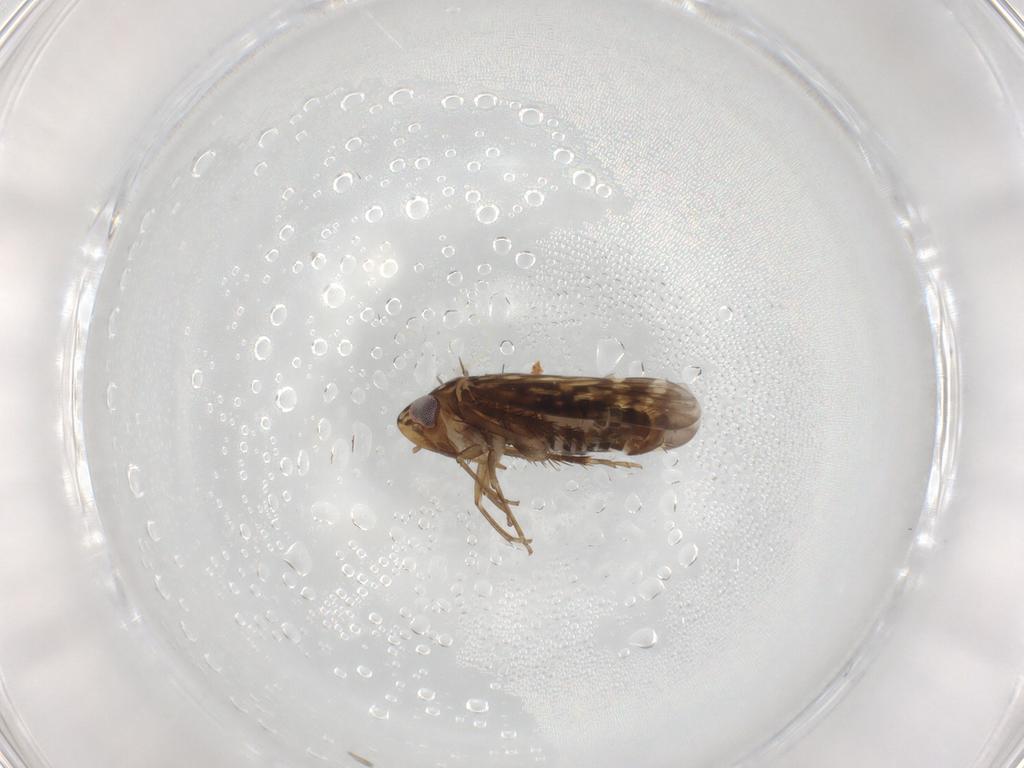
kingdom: Animalia
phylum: Arthropoda
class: Insecta
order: Hemiptera
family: Cicadellidae
